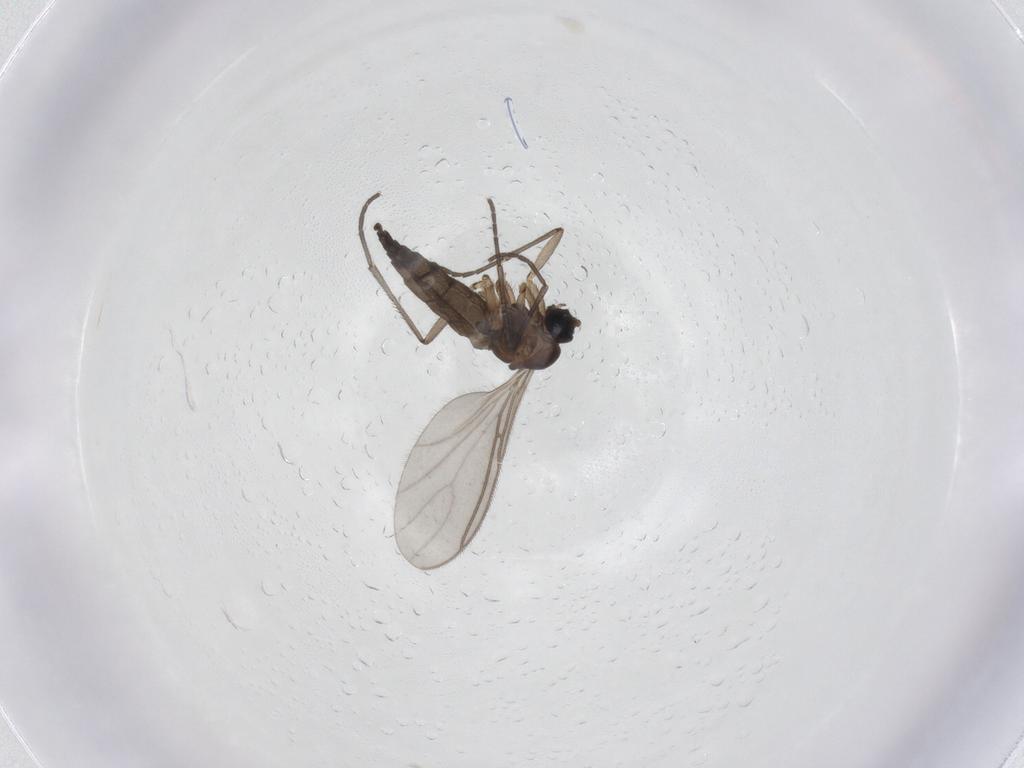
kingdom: Animalia
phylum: Arthropoda
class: Insecta
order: Diptera
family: Sciaridae
